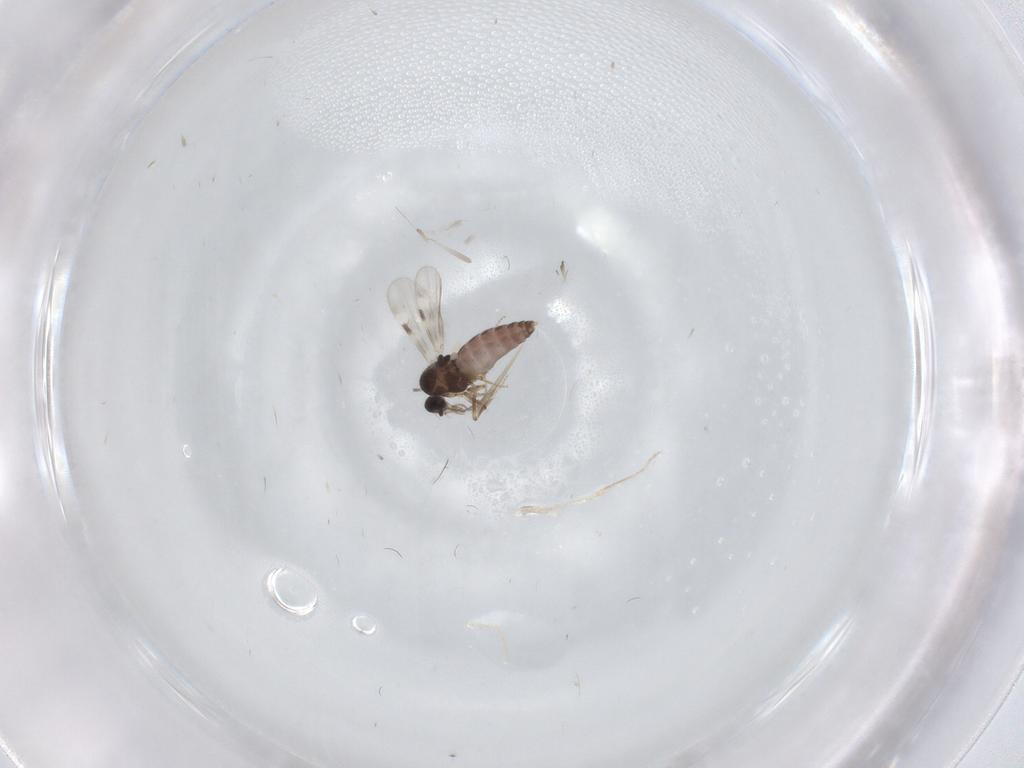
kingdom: Animalia
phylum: Arthropoda
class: Insecta
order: Diptera
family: Chironomidae
